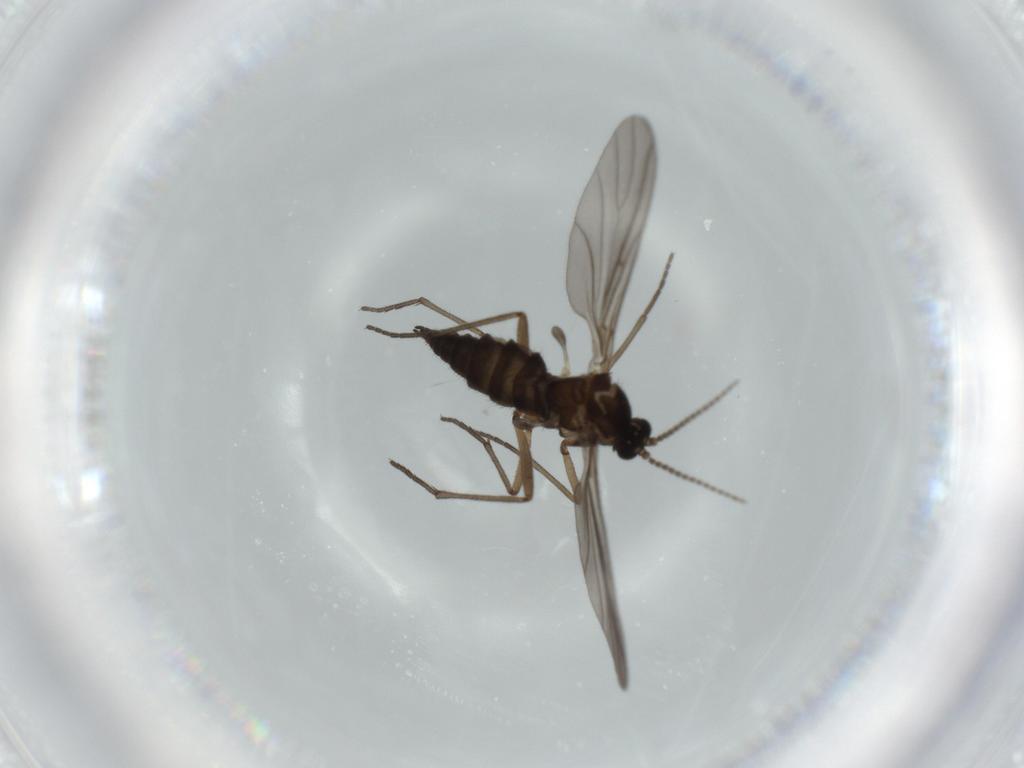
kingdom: Animalia
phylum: Arthropoda
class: Insecta
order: Diptera
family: Sciaridae
